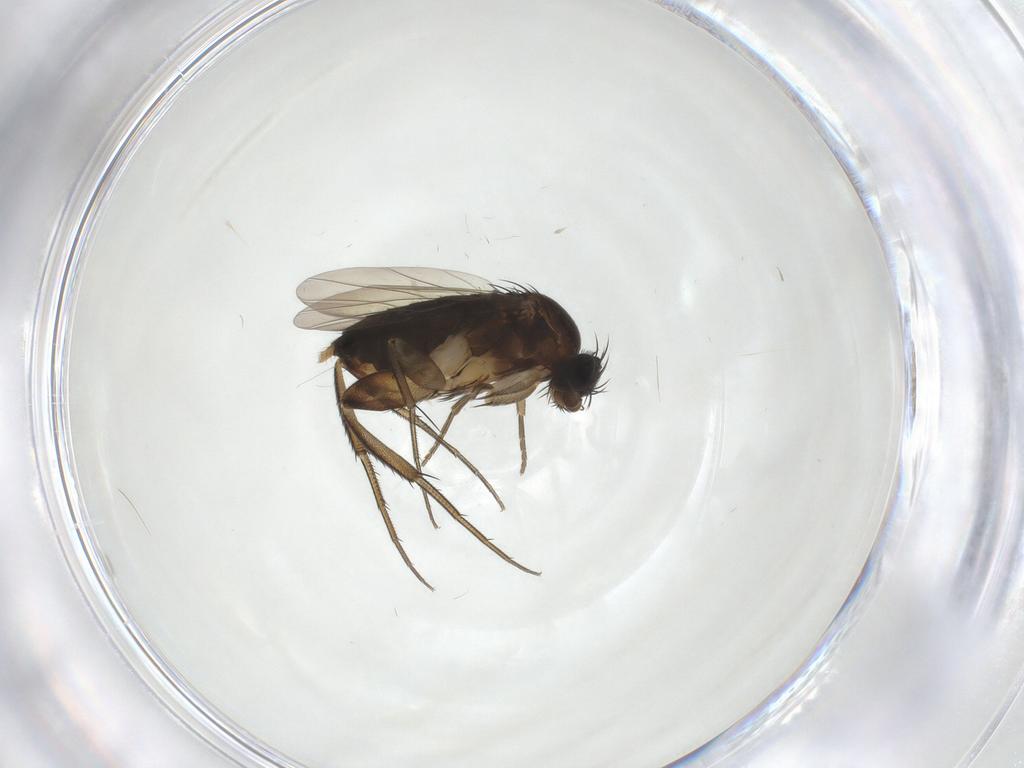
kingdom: Animalia
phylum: Arthropoda
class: Insecta
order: Diptera
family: Phoridae
